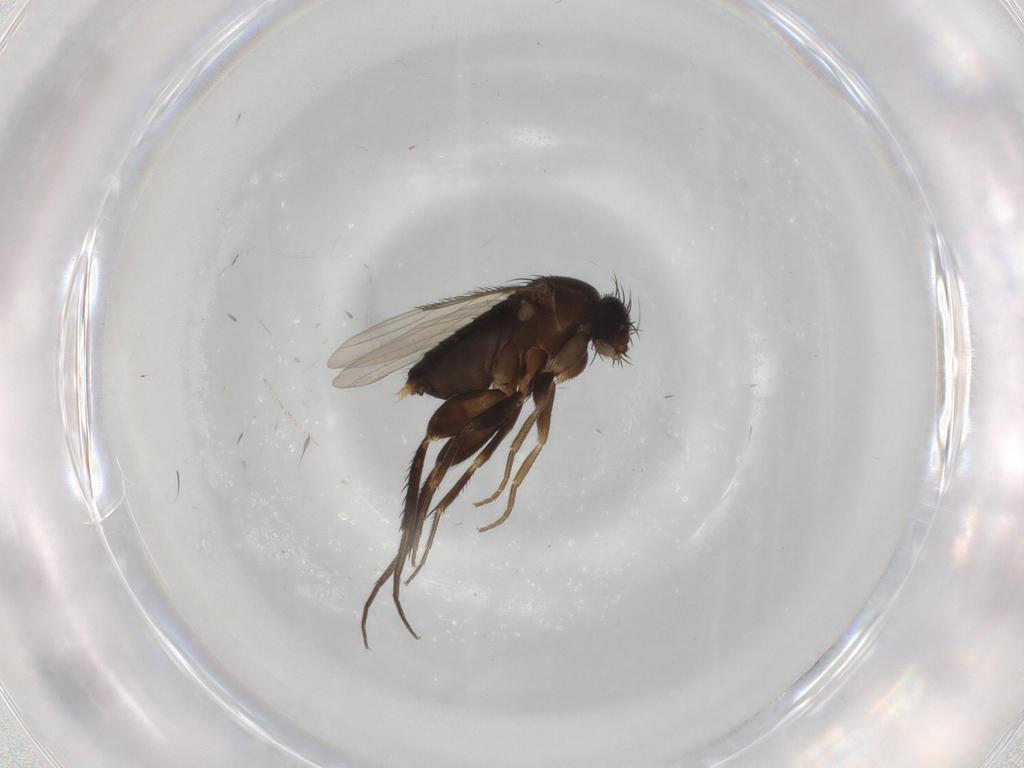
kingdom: Animalia
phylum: Arthropoda
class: Insecta
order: Diptera
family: Phoridae
